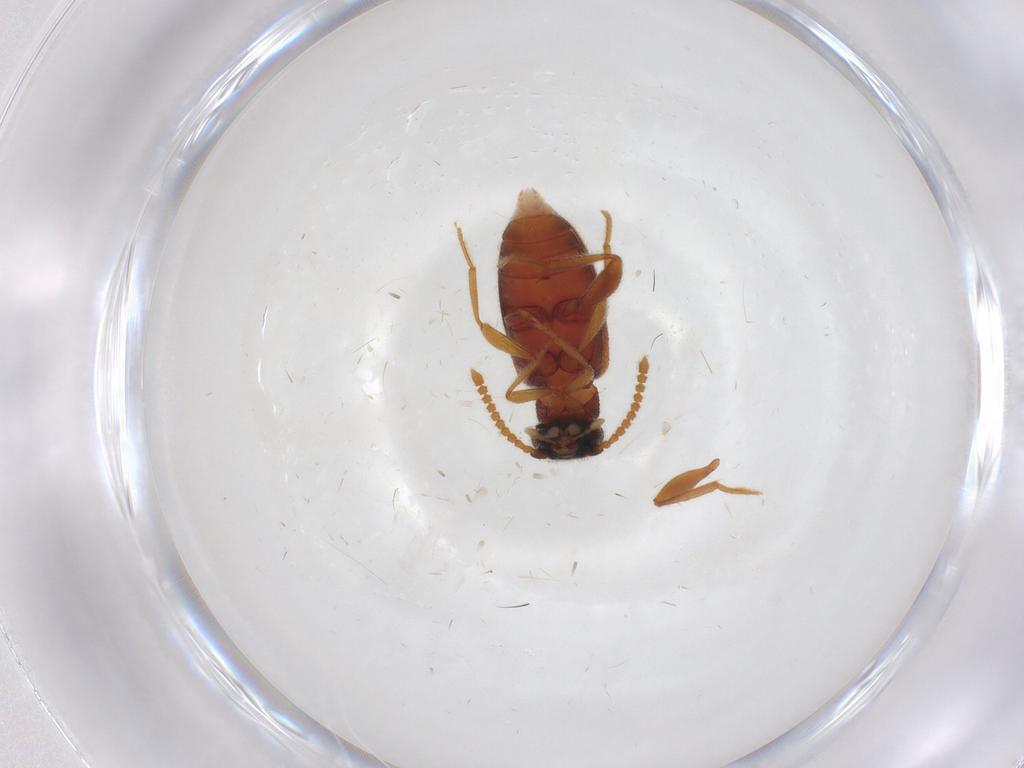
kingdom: Animalia
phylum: Arthropoda
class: Insecta
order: Coleoptera
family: Aderidae
